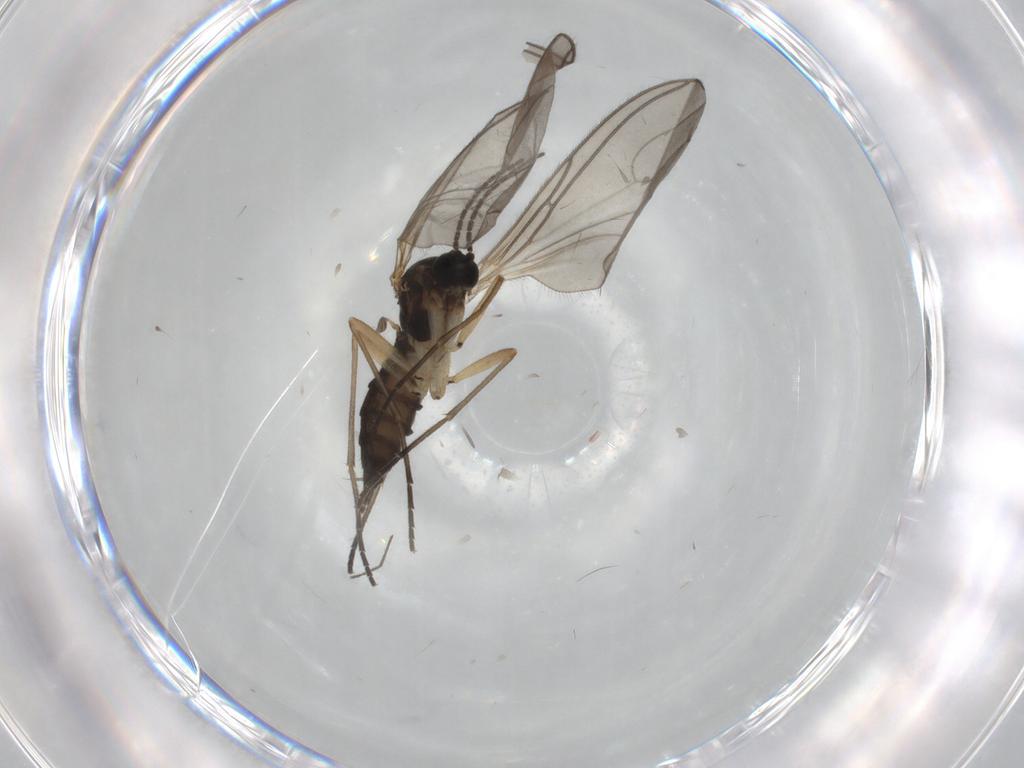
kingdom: Animalia
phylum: Arthropoda
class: Insecta
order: Diptera
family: Sciaridae
